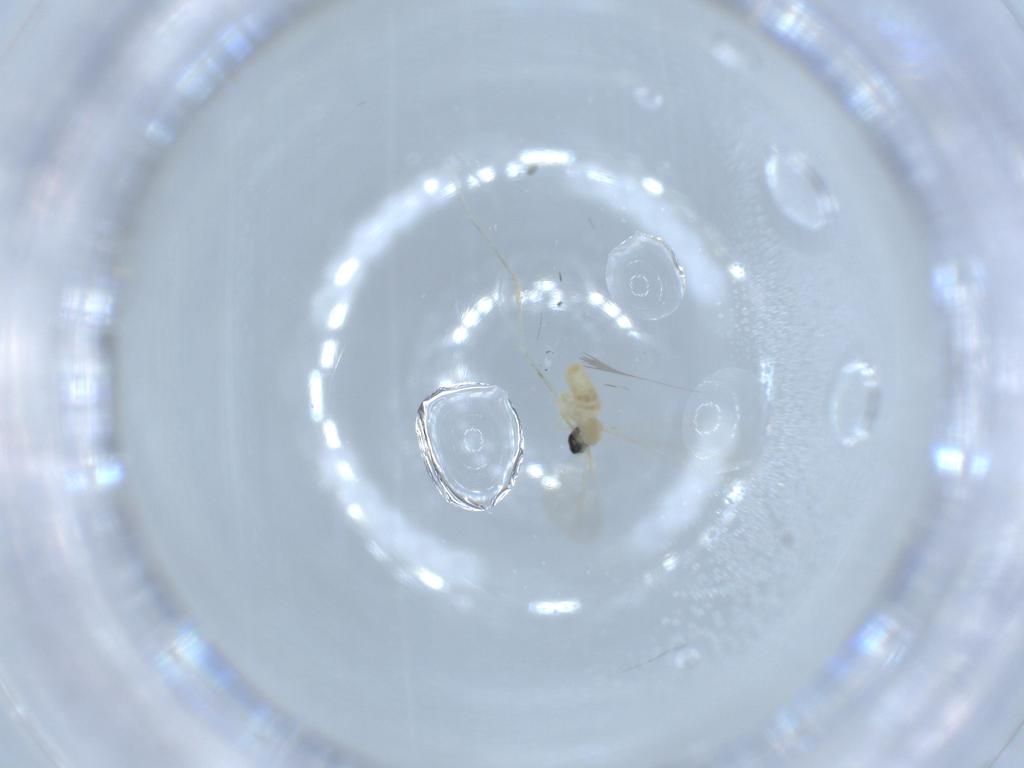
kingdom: Animalia
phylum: Arthropoda
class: Insecta
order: Diptera
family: Cecidomyiidae
